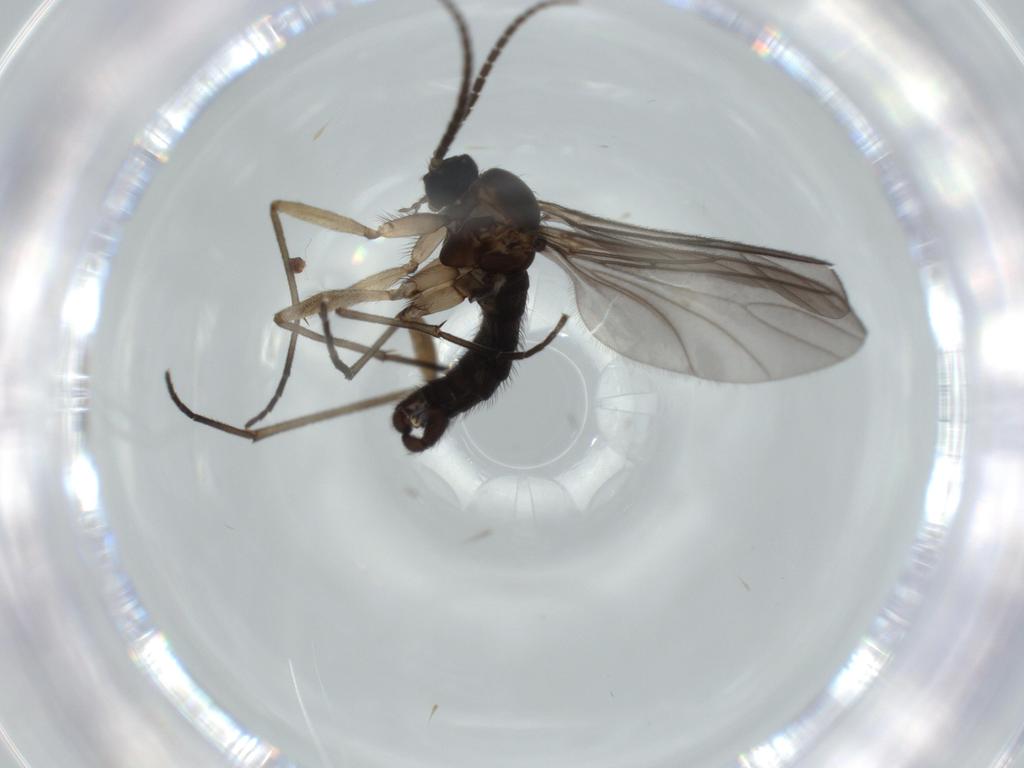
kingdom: Animalia
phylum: Arthropoda
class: Insecta
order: Diptera
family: Sciaridae
